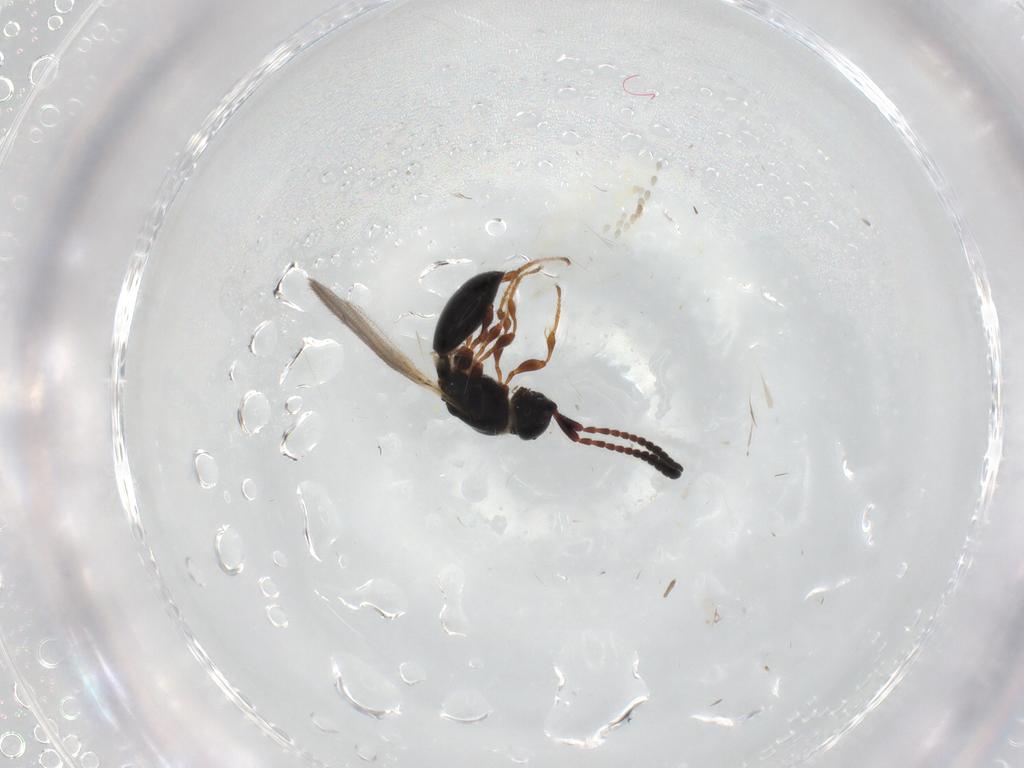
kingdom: Animalia
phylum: Arthropoda
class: Insecta
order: Hymenoptera
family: Diapriidae
